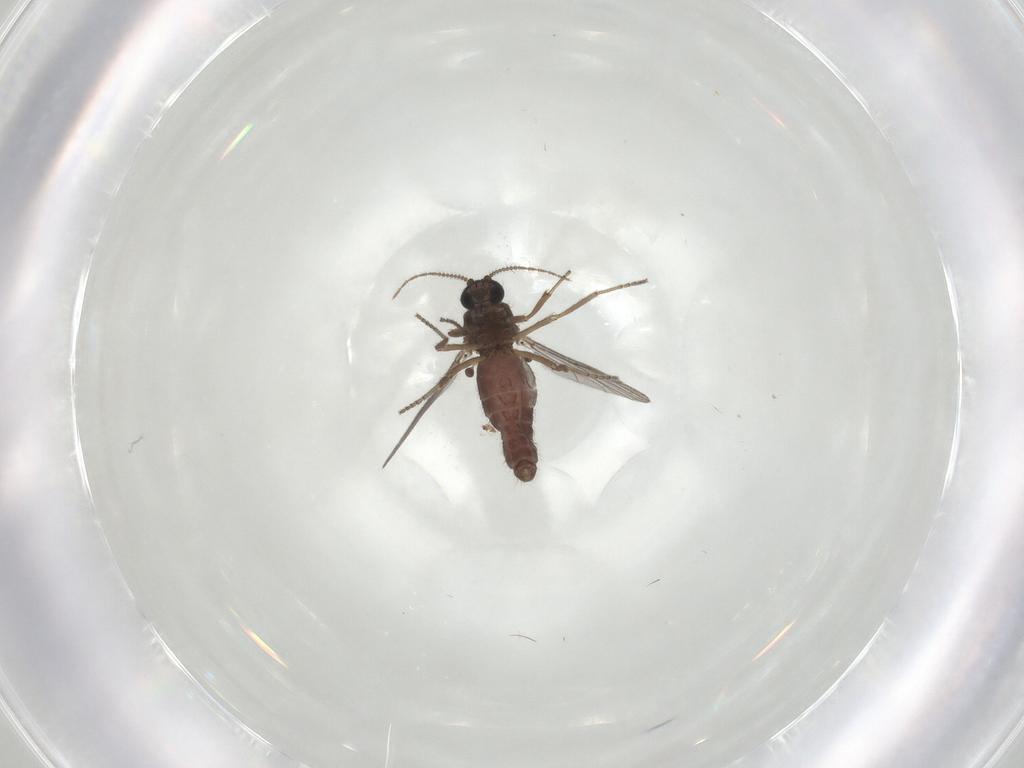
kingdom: Animalia
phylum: Arthropoda
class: Insecta
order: Diptera
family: Ceratopogonidae
